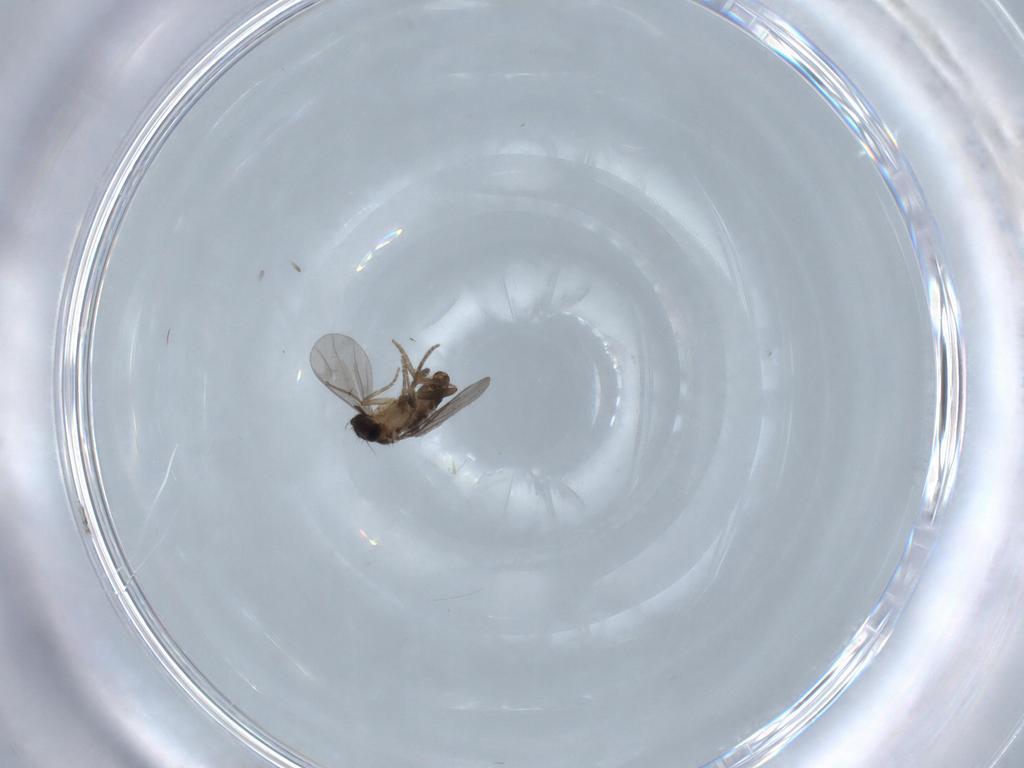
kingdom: Animalia
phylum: Arthropoda
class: Insecta
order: Diptera
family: Chironomidae
